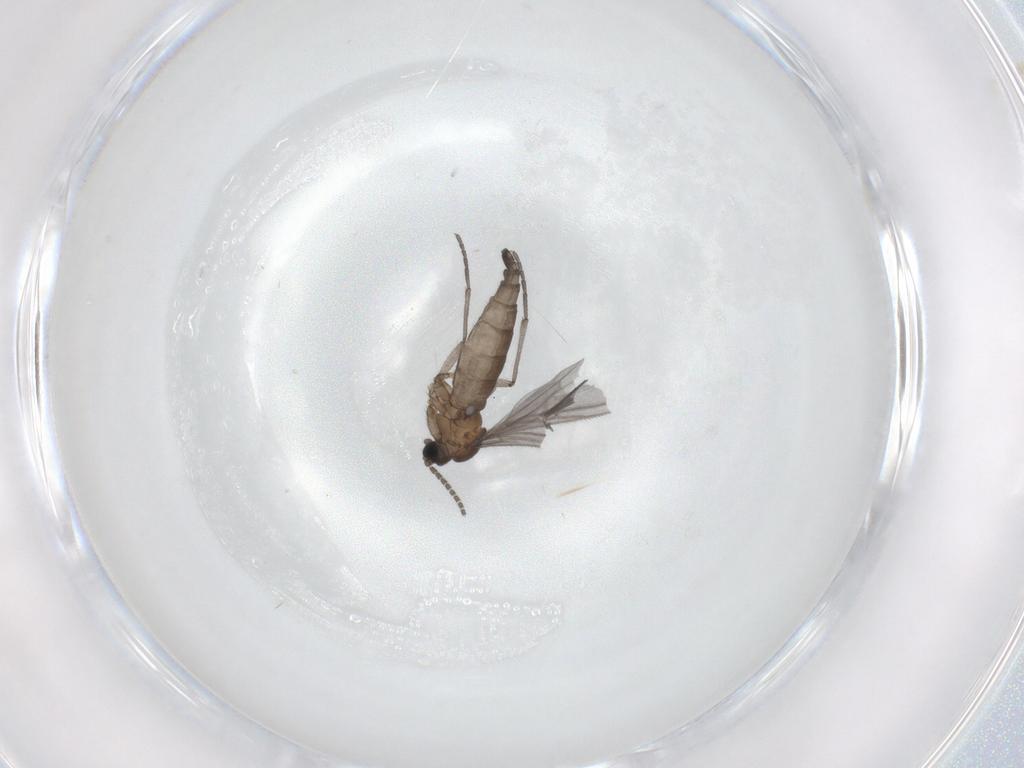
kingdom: Animalia
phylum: Arthropoda
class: Insecta
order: Diptera
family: Sciaridae
